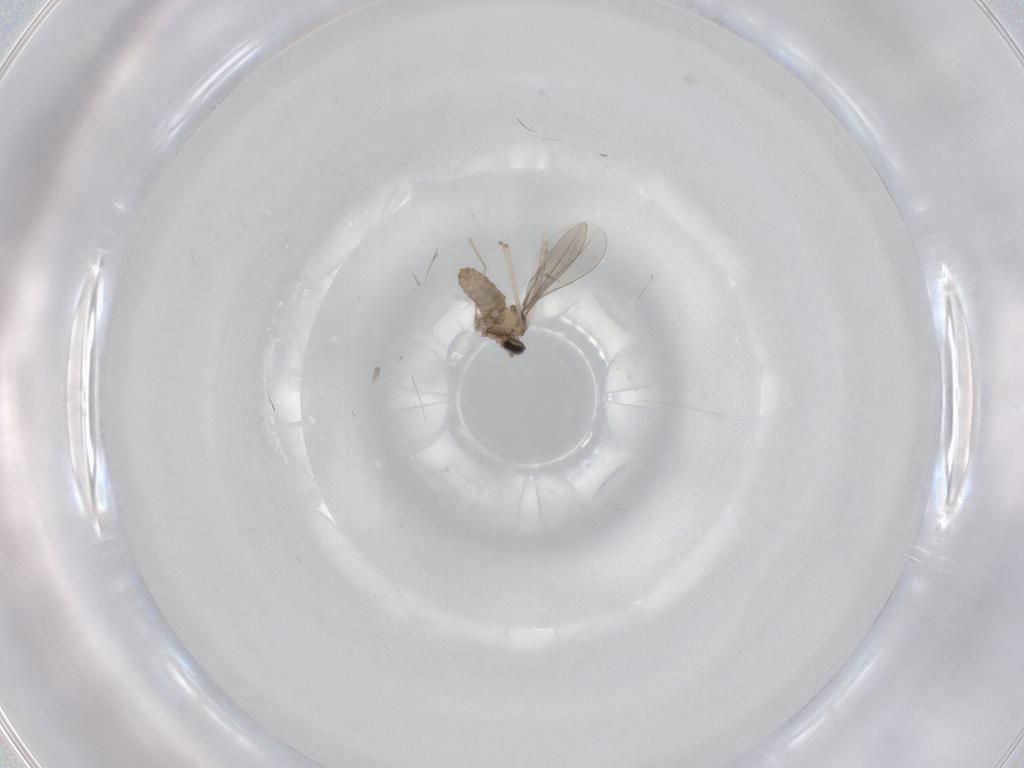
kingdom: Animalia
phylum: Arthropoda
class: Insecta
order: Diptera
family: Cecidomyiidae
